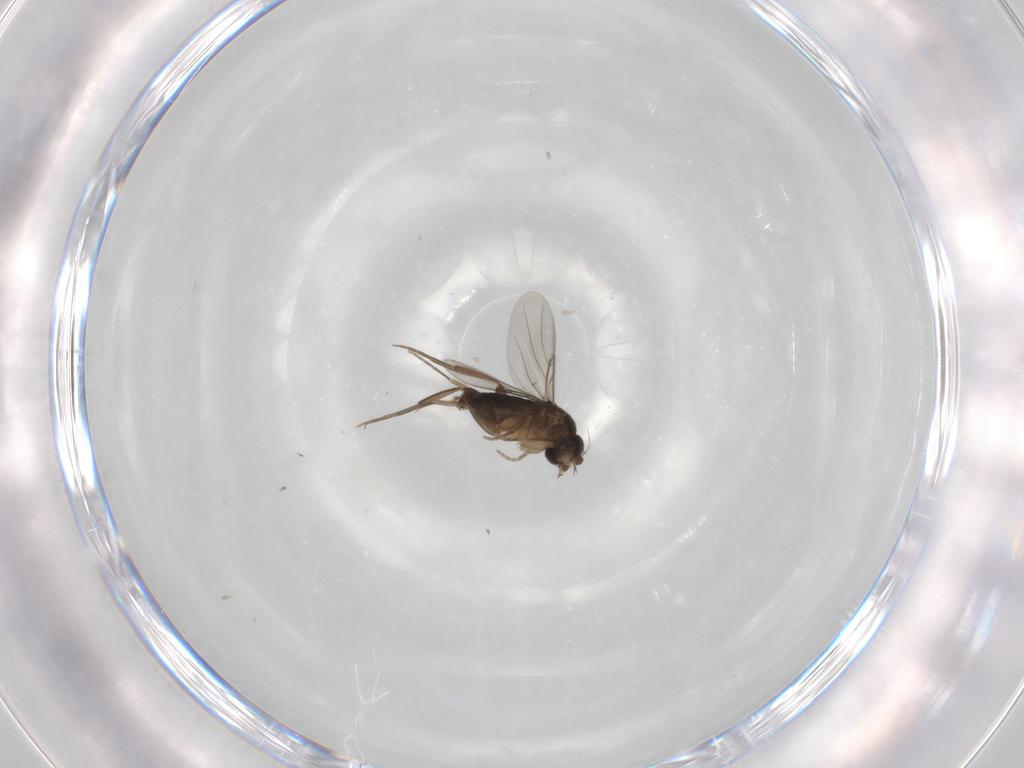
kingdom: Animalia
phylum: Arthropoda
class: Insecta
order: Diptera
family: Phoridae
